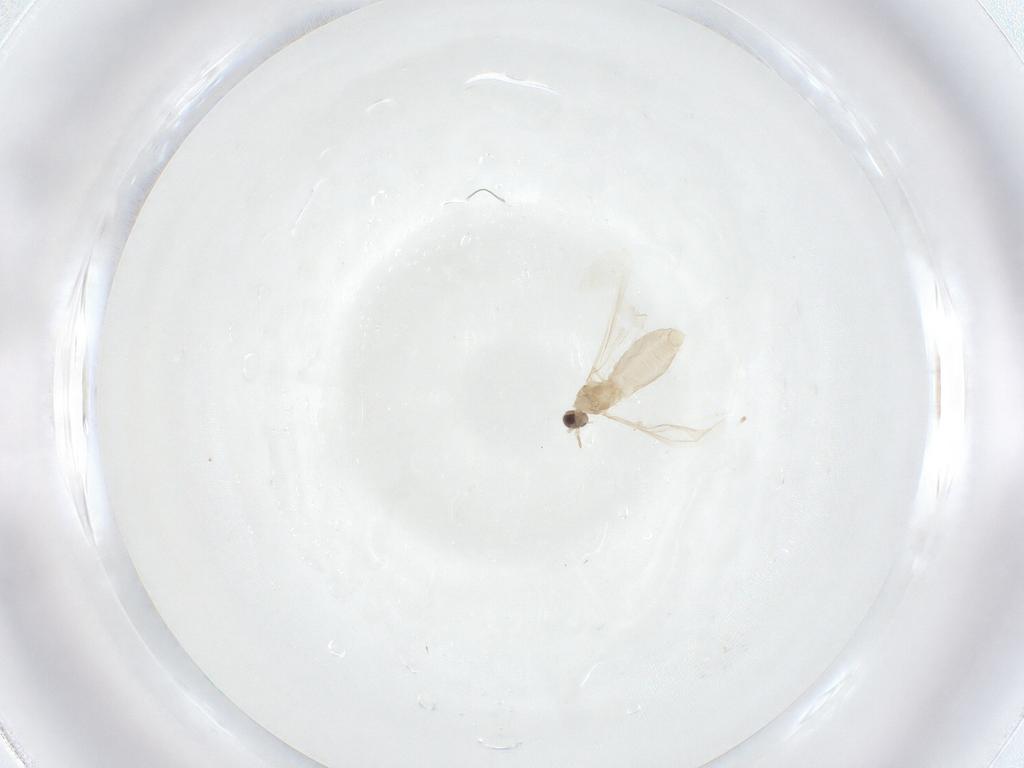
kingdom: Animalia
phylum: Arthropoda
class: Insecta
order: Diptera
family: Cecidomyiidae
